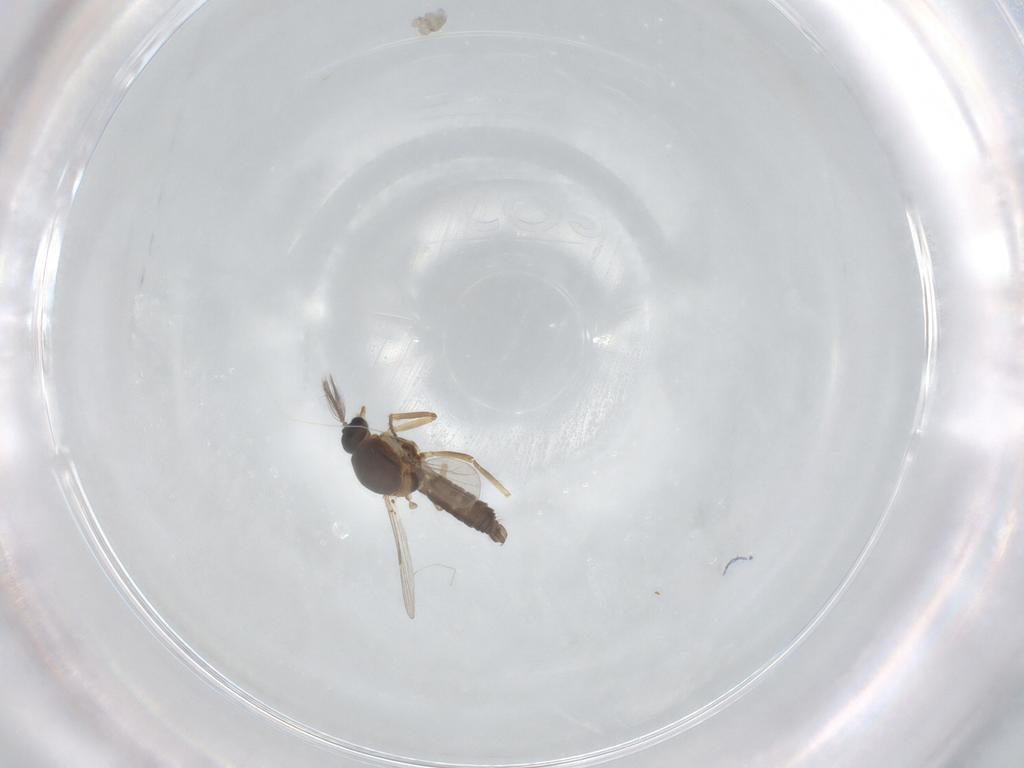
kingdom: Animalia
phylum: Arthropoda
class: Insecta
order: Diptera
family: Ceratopogonidae
